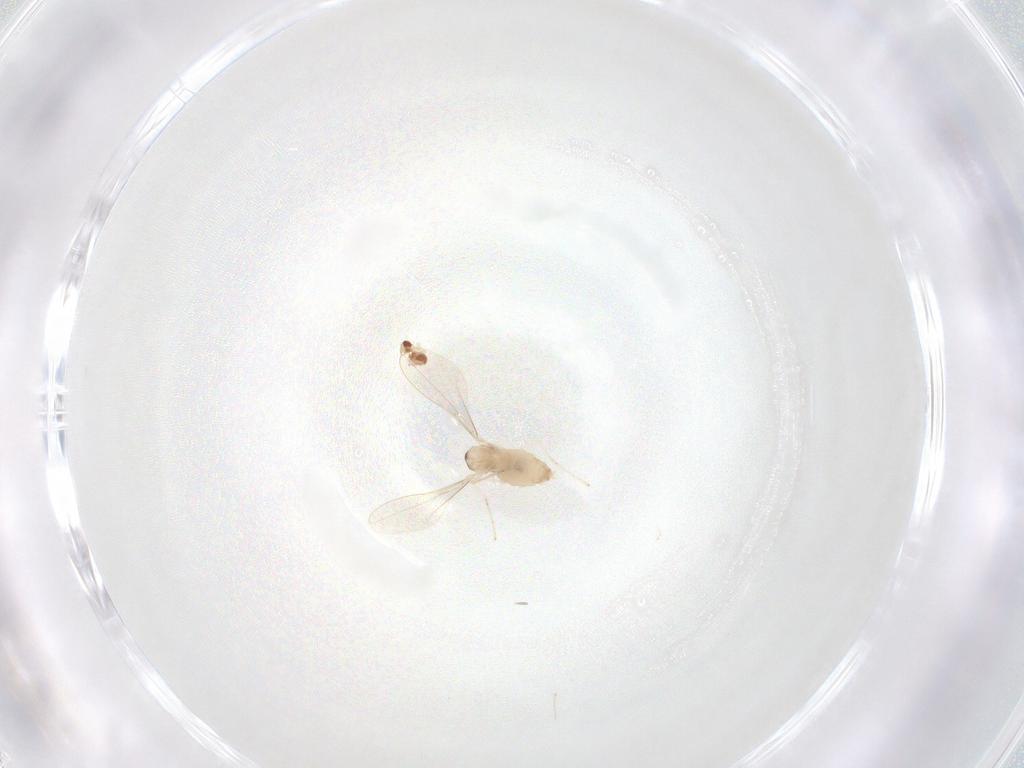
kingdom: Animalia
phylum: Arthropoda
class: Insecta
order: Diptera
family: Cecidomyiidae
